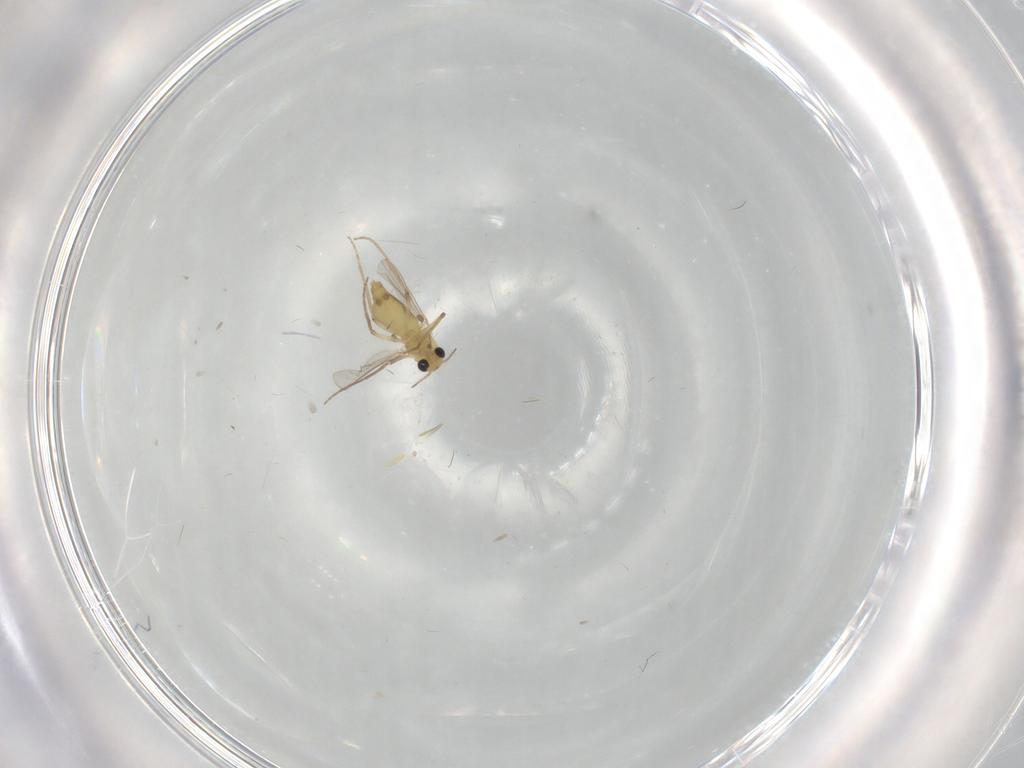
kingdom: Animalia
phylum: Arthropoda
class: Insecta
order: Diptera
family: Chironomidae
